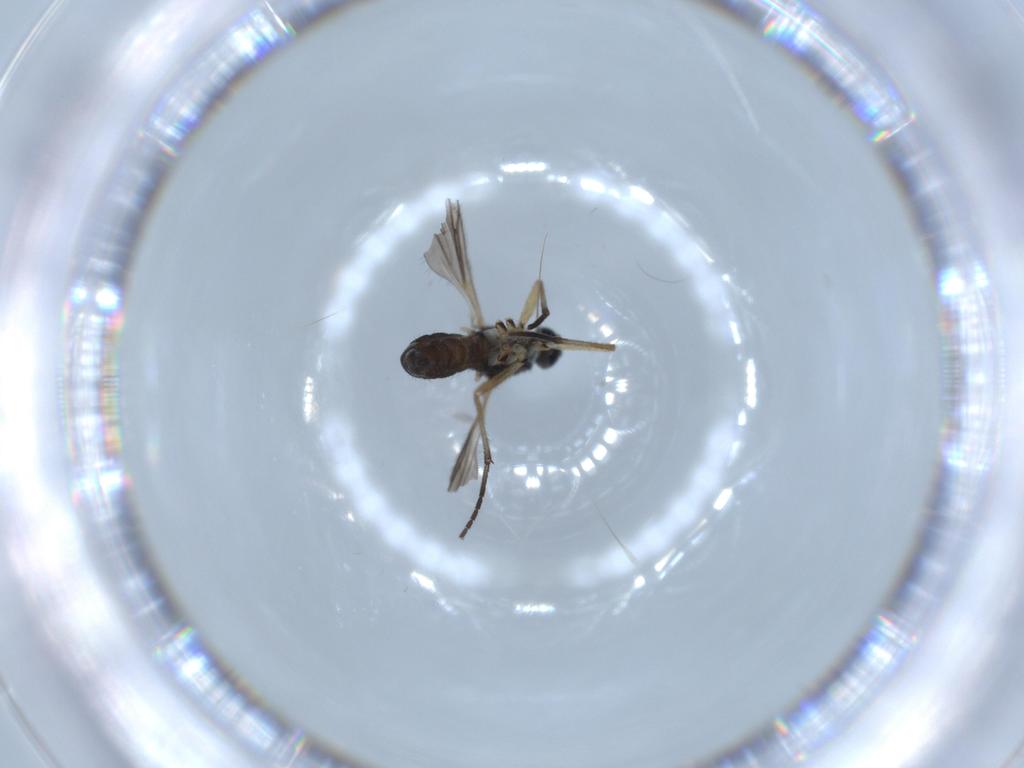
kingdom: Animalia
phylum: Arthropoda
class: Insecta
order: Diptera
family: Sciaridae
